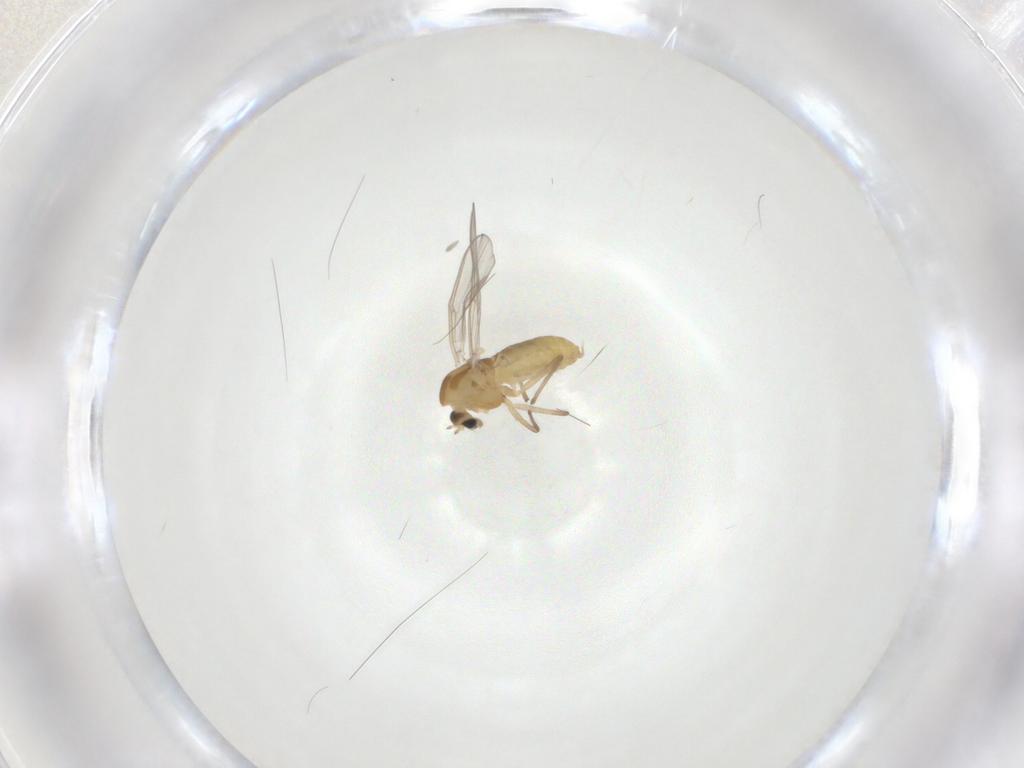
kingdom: Animalia
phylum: Arthropoda
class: Insecta
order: Diptera
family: Chironomidae
